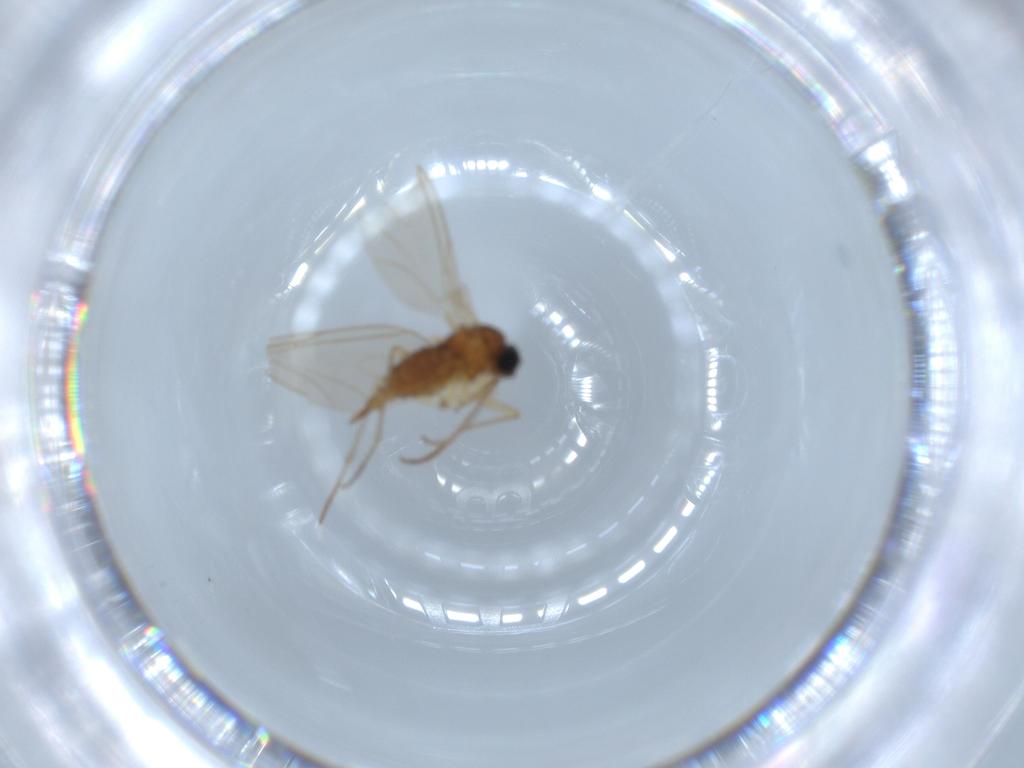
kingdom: Animalia
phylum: Arthropoda
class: Insecta
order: Diptera
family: Sciaridae
